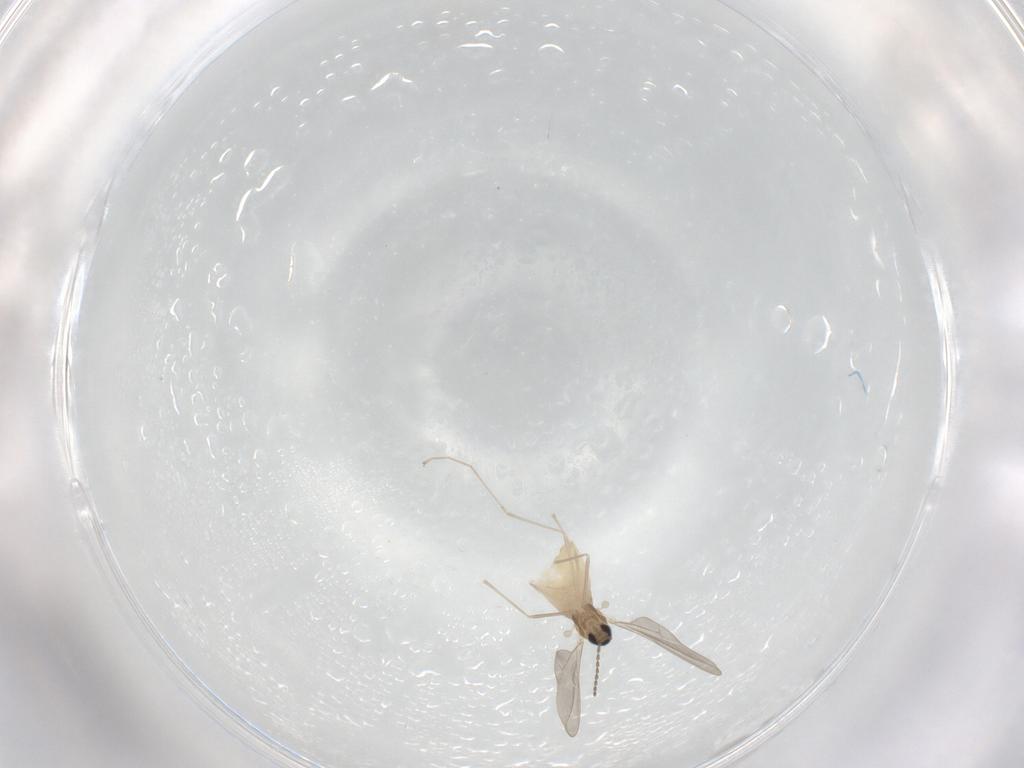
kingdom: Animalia
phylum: Arthropoda
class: Insecta
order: Diptera
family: Cecidomyiidae
